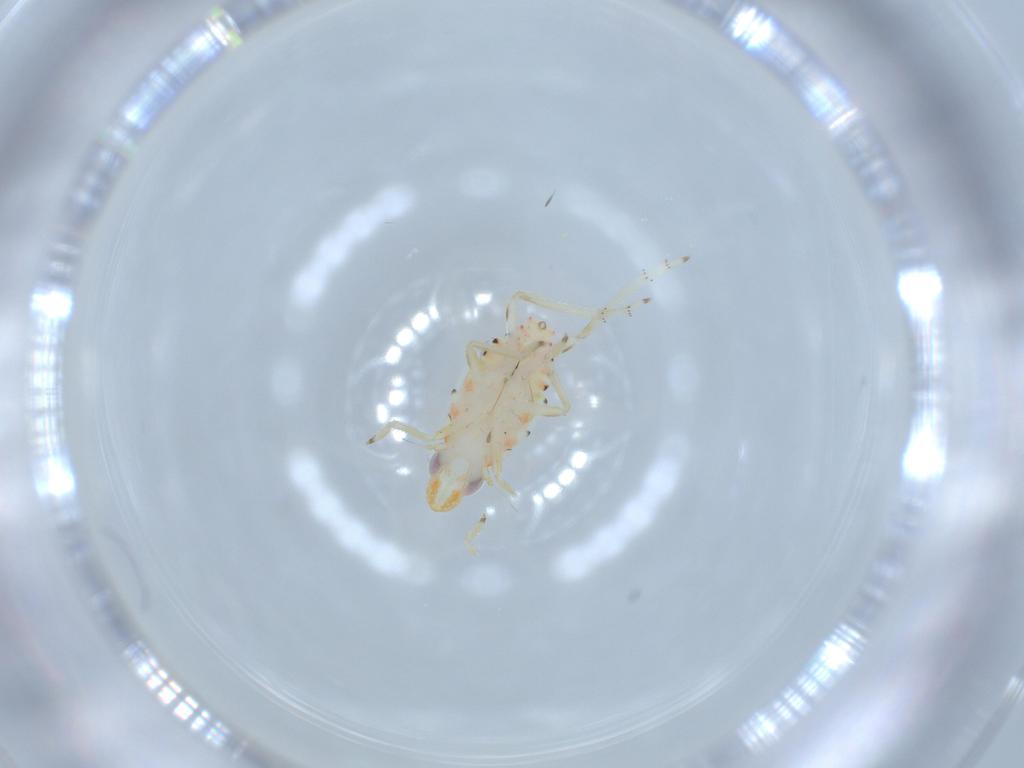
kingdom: Animalia
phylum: Arthropoda
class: Insecta
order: Hemiptera
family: Tropiduchidae
